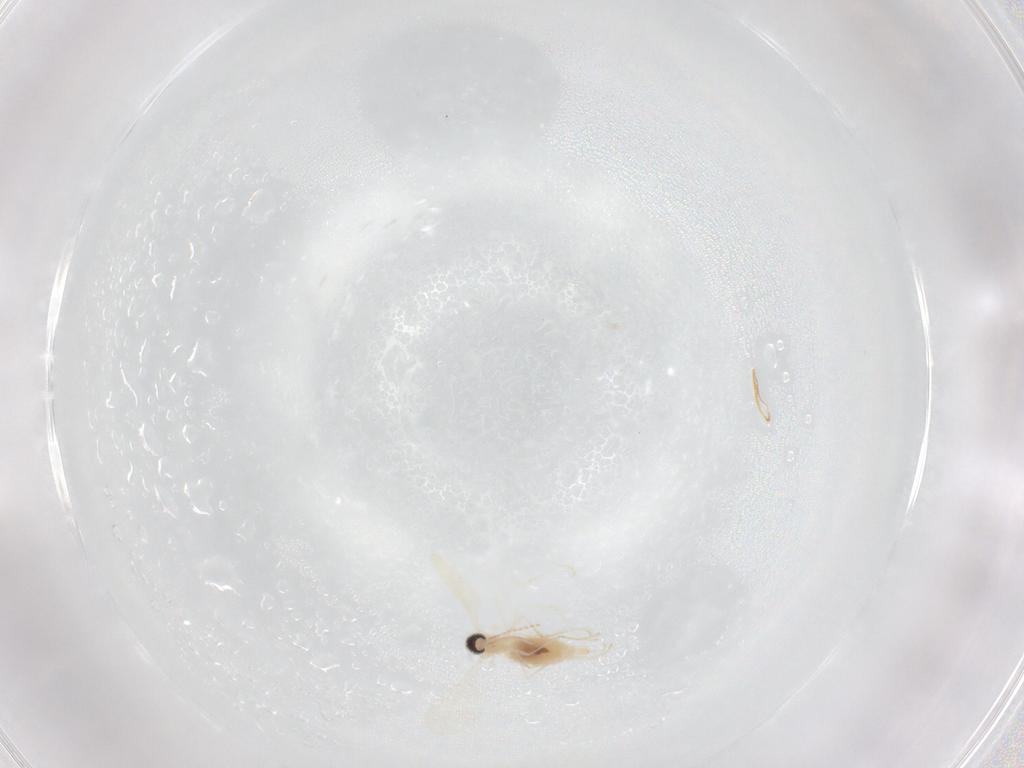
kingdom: Animalia
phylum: Arthropoda
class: Insecta
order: Diptera
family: Cecidomyiidae
